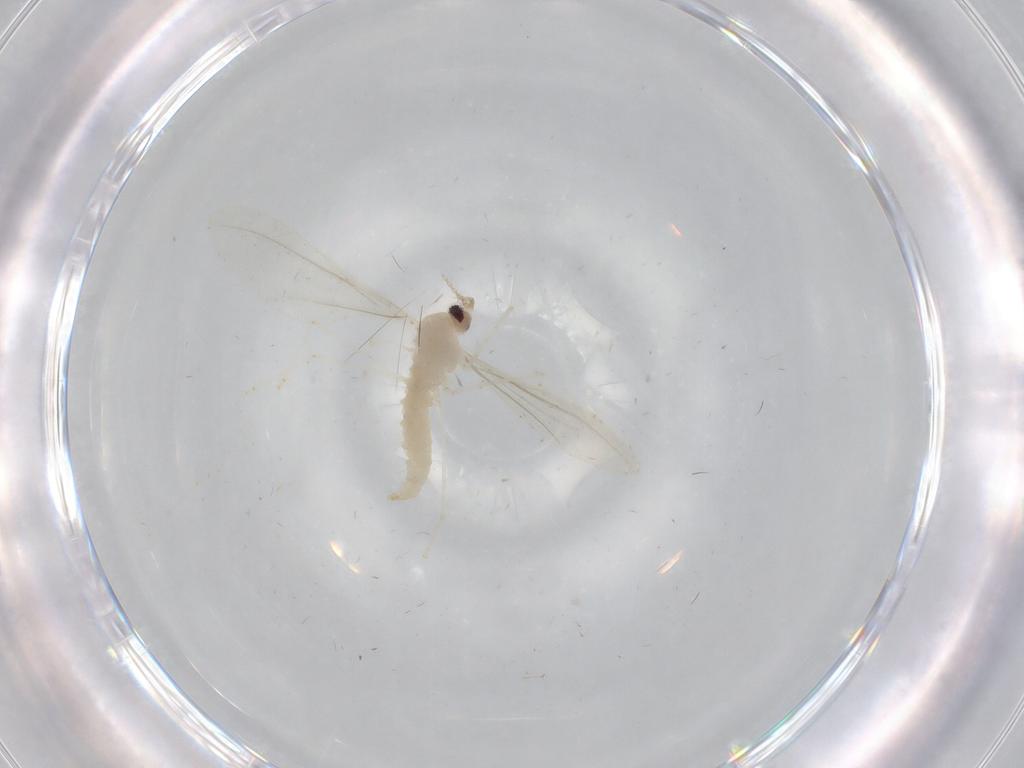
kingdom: Animalia
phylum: Arthropoda
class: Insecta
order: Diptera
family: Cecidomyiidae
